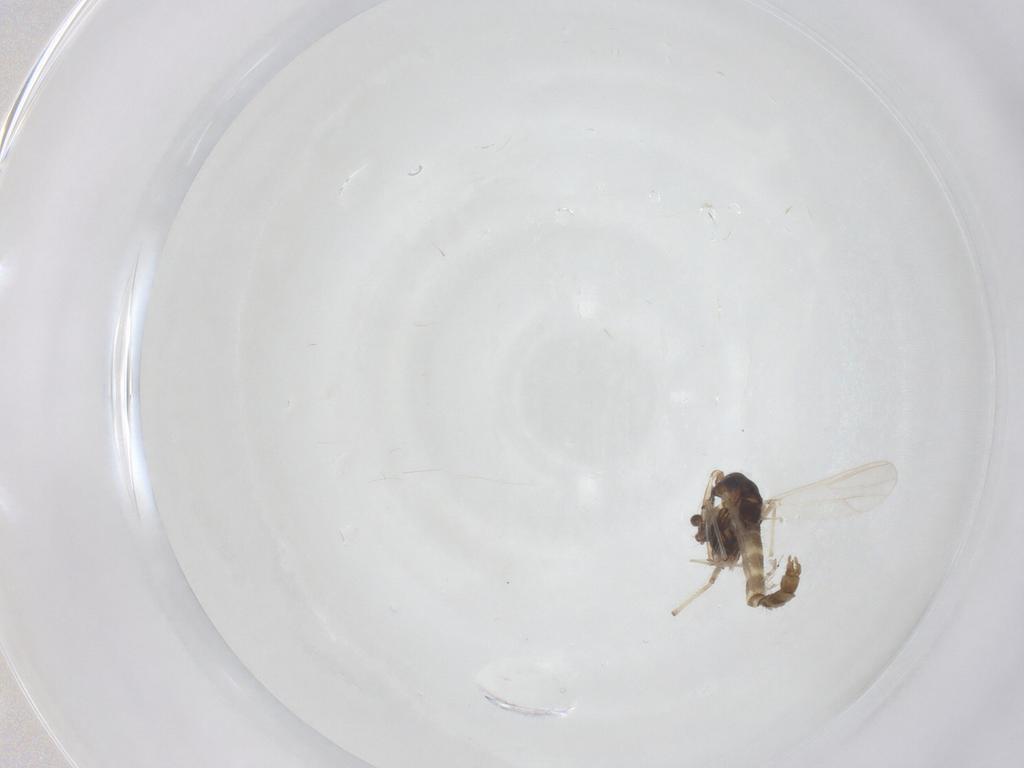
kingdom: Animalia
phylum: Arthropoda
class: Insecta
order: Diptera
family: Chironomidae
